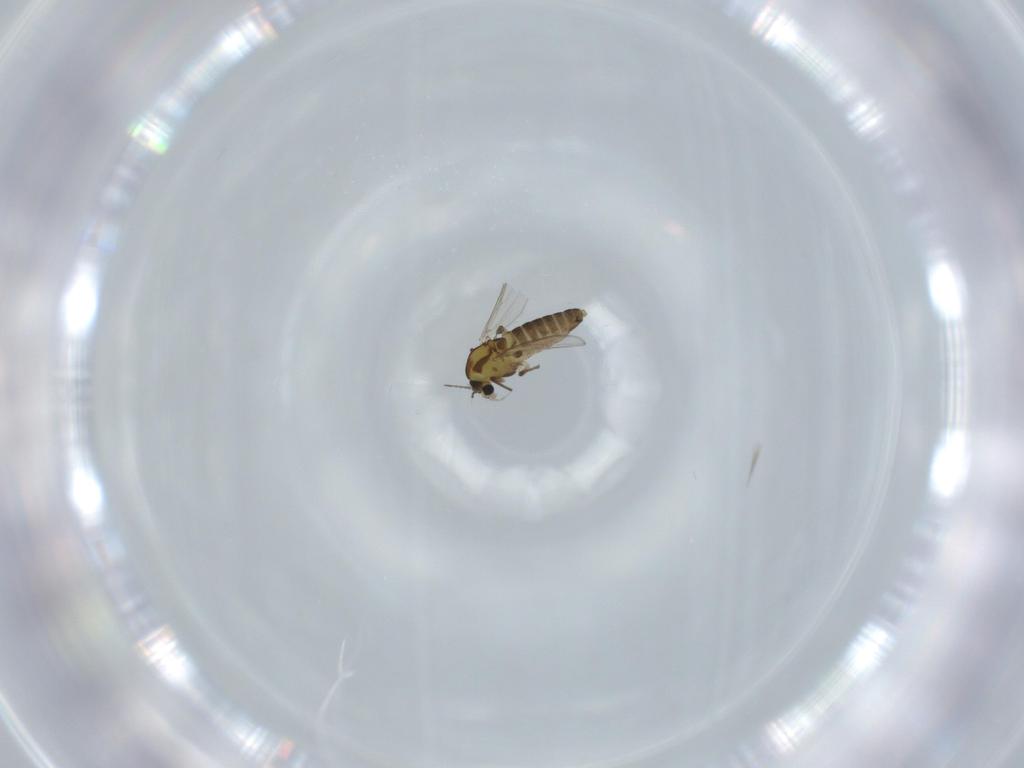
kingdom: Animalia
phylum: Arthropoda
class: Insecta
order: Diptera
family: Chironomidae
